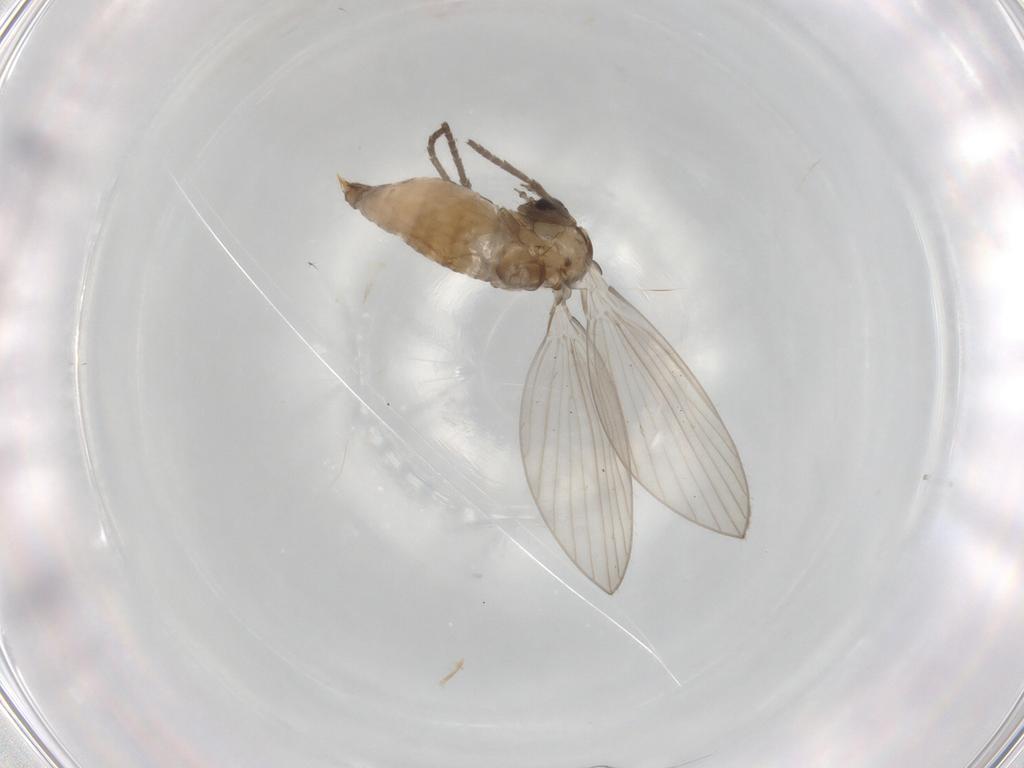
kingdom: Animalia
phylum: Arthropoda
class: Insecta
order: Diptera
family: Psychodidae
